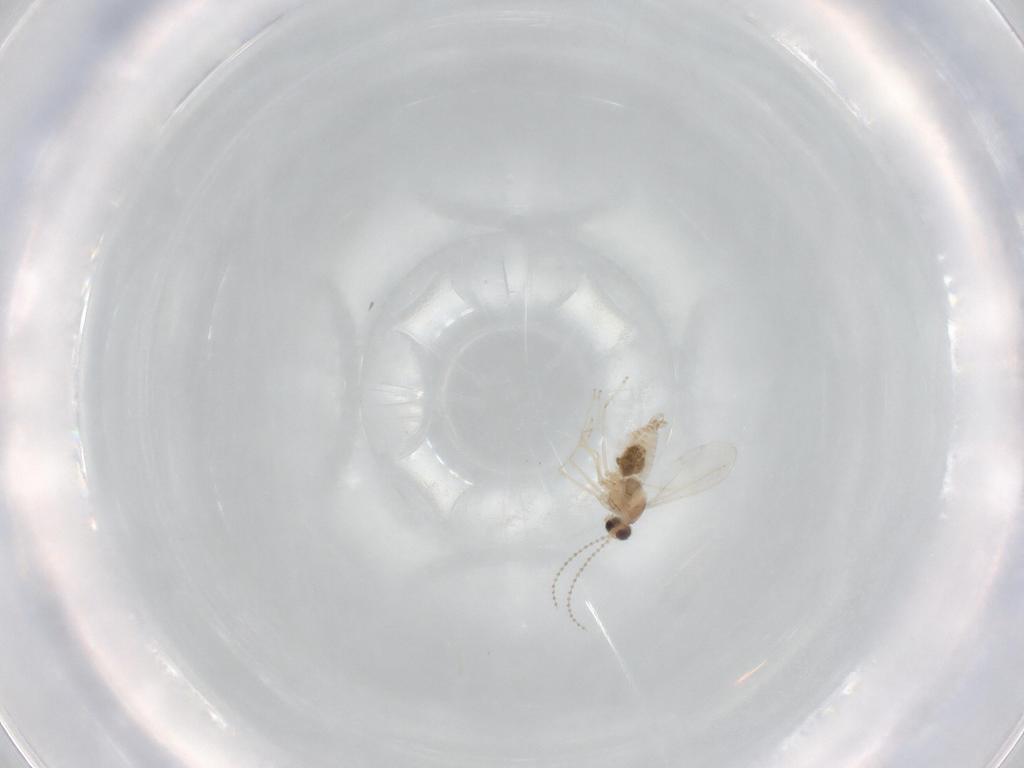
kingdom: Animalia
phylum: Arthropoda
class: Insecta
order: Diptera
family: Cecidomyiidae
